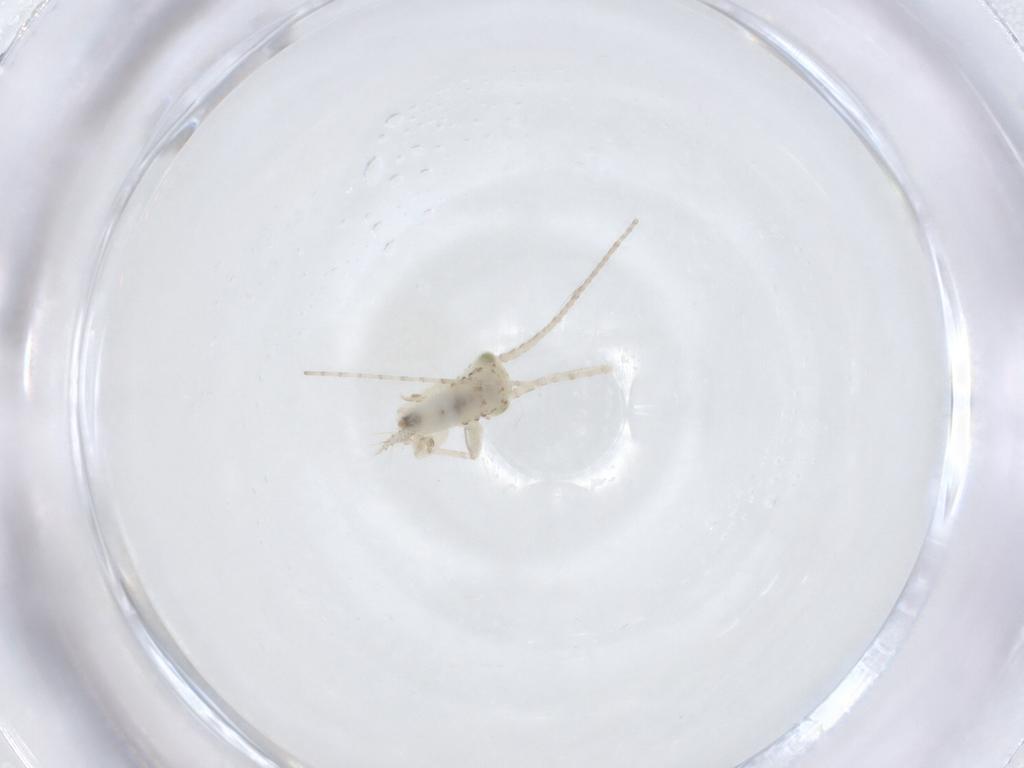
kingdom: Animalia
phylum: Arthropoda
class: Insecta
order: Orthoptera
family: Trigonidiidae
